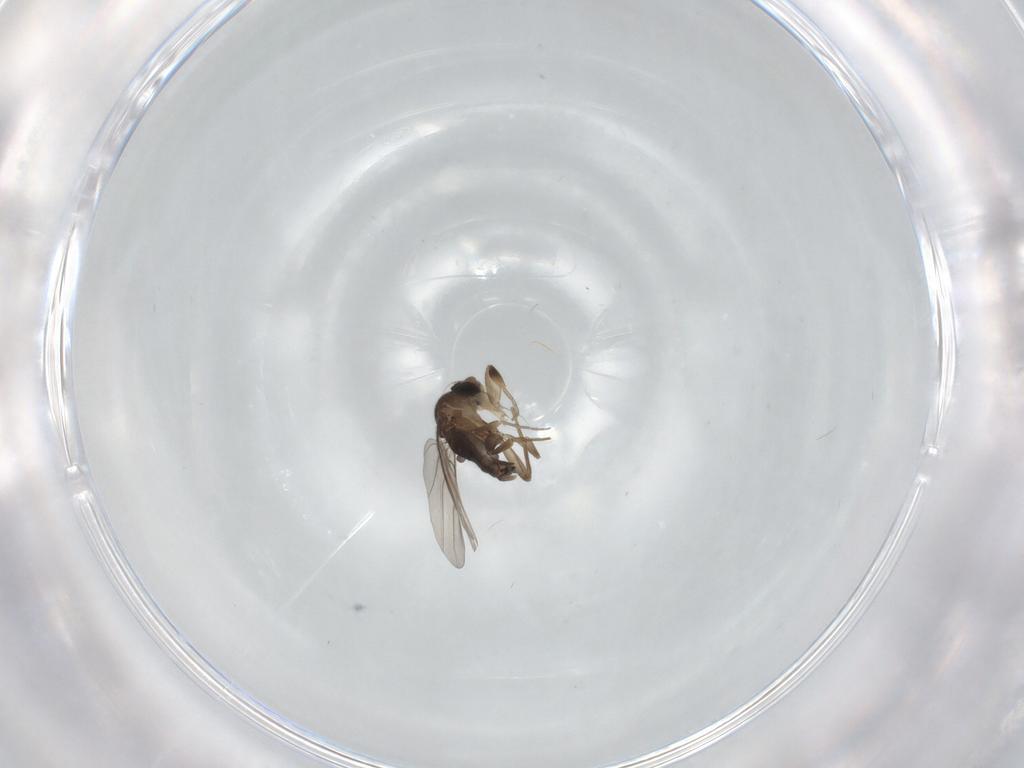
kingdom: Animalia
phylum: Arthropoda
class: Insecta
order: Diptera
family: Phoridae
